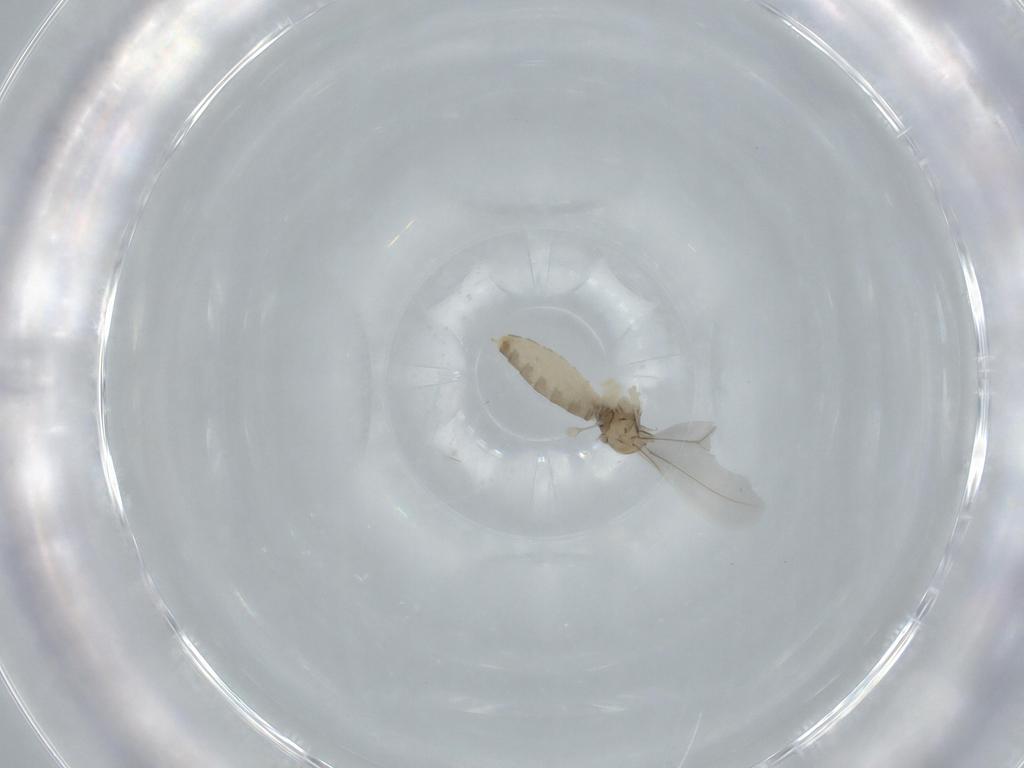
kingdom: Animalia
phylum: Arthropoda
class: Insecta
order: Diptera
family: Cecidomyiidae
